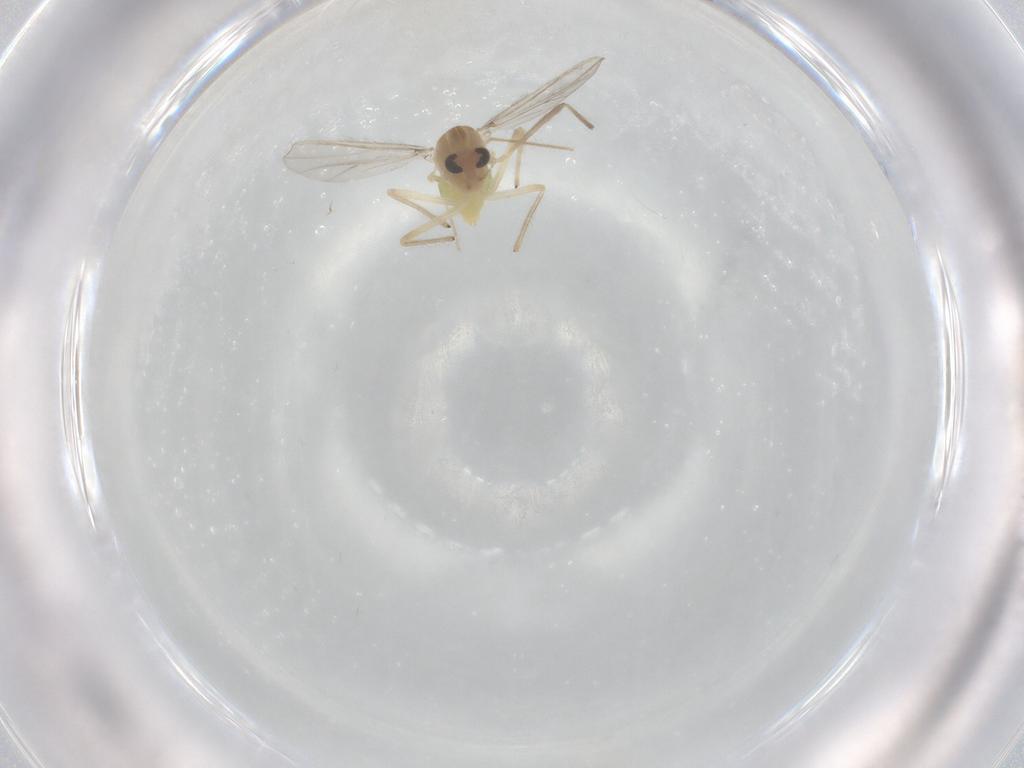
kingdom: Animalia
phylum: Arthropoda
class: Insecta
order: Diptera
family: Chironomidae
